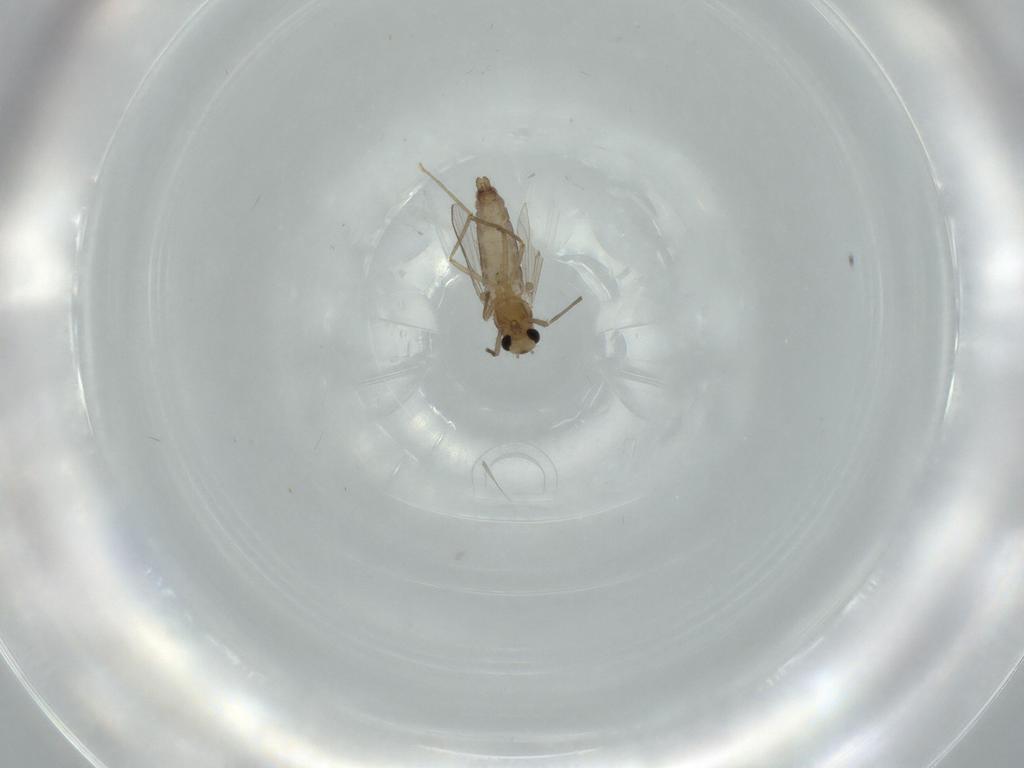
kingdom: Animalia
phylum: Arthropoda
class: Insecta
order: Diptera
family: Chironomidae
